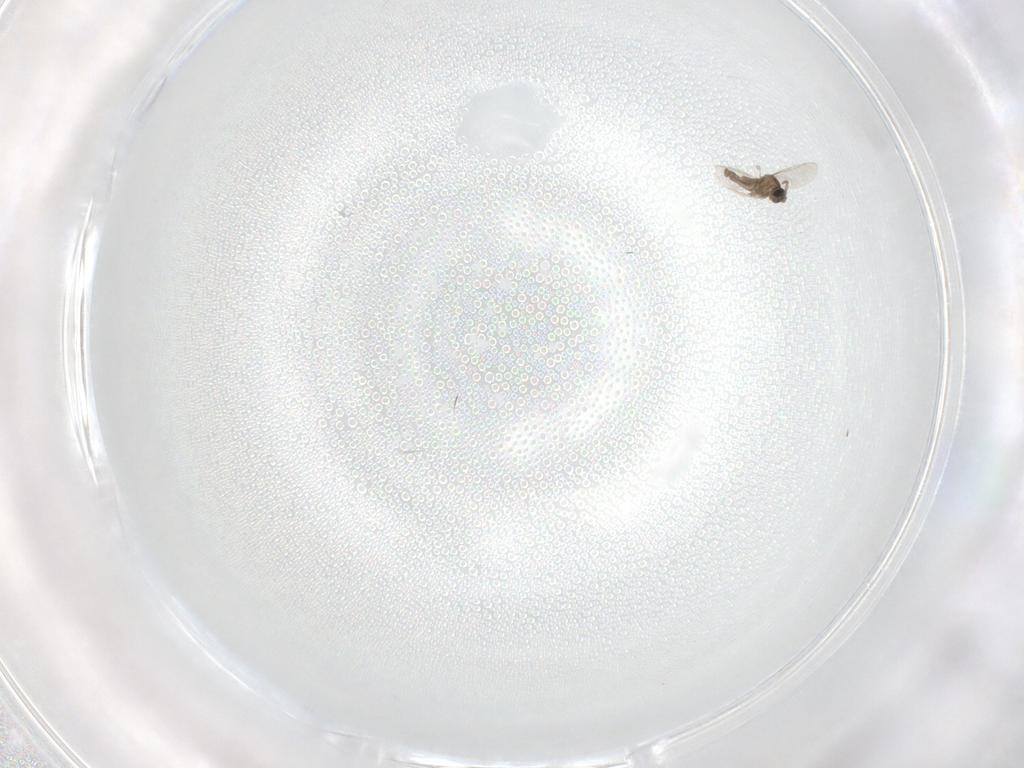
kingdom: Animalia
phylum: Arthropoda
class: Insecta
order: Diptera
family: Cecidomyiidae
